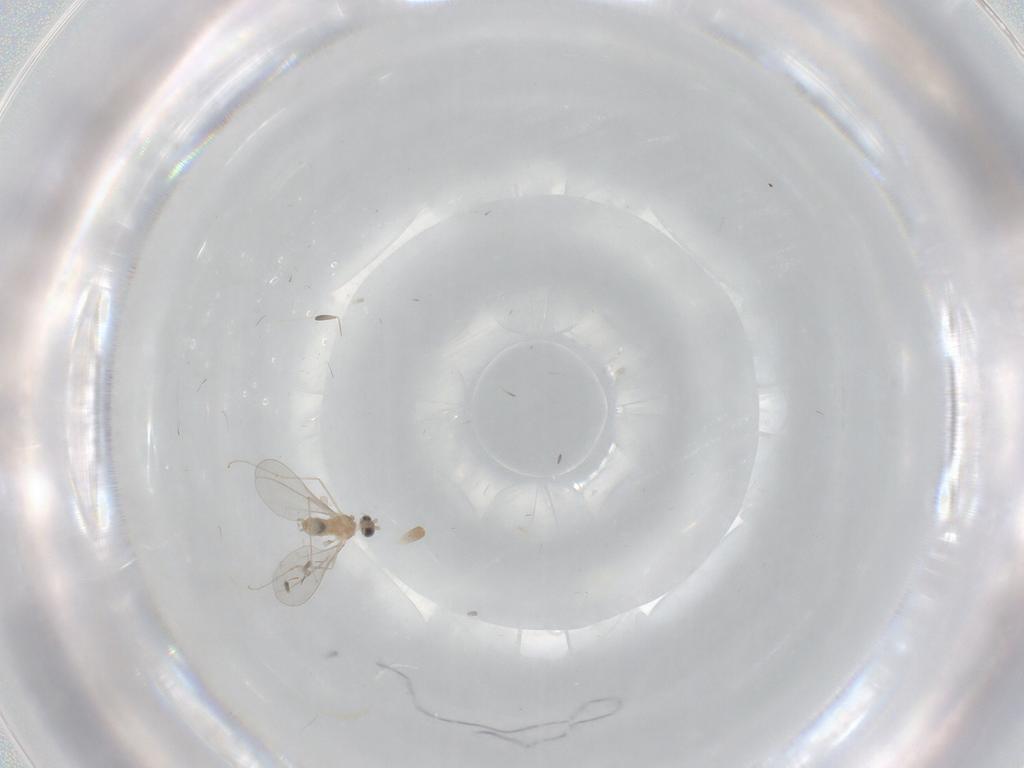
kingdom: Animalia
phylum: Arthropoda
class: Insecta
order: Diptera
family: Cecidomyiidae
